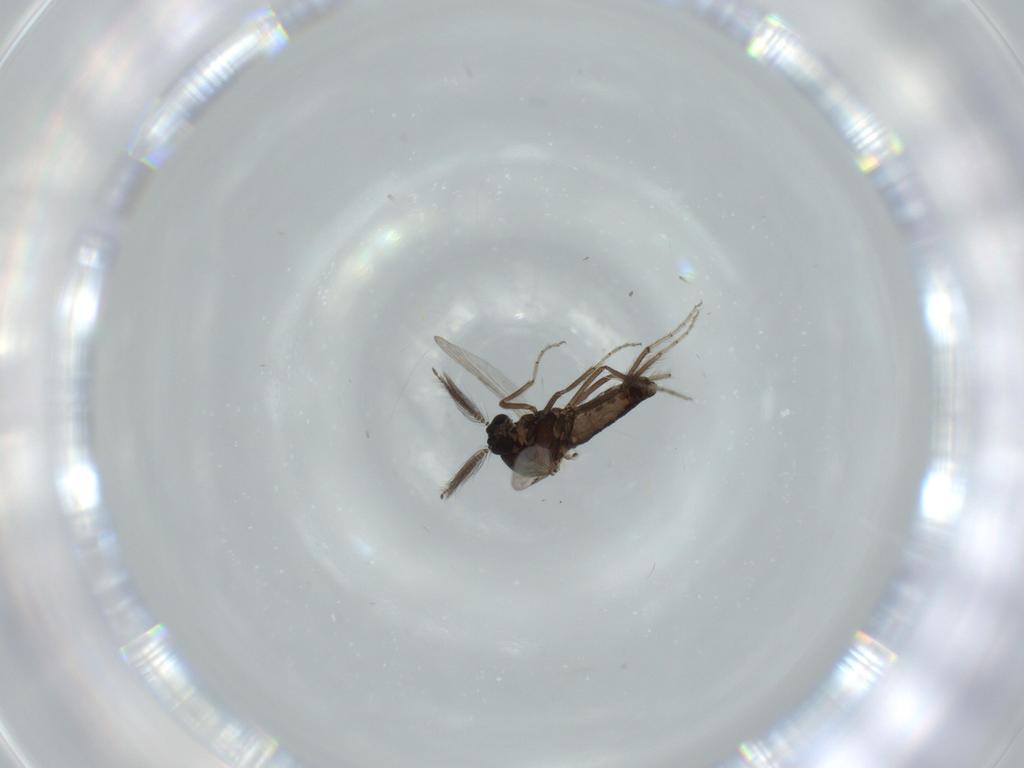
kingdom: Animalia
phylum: Arthropoda
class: Insecta
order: Diptera
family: Ceratopogonidae
